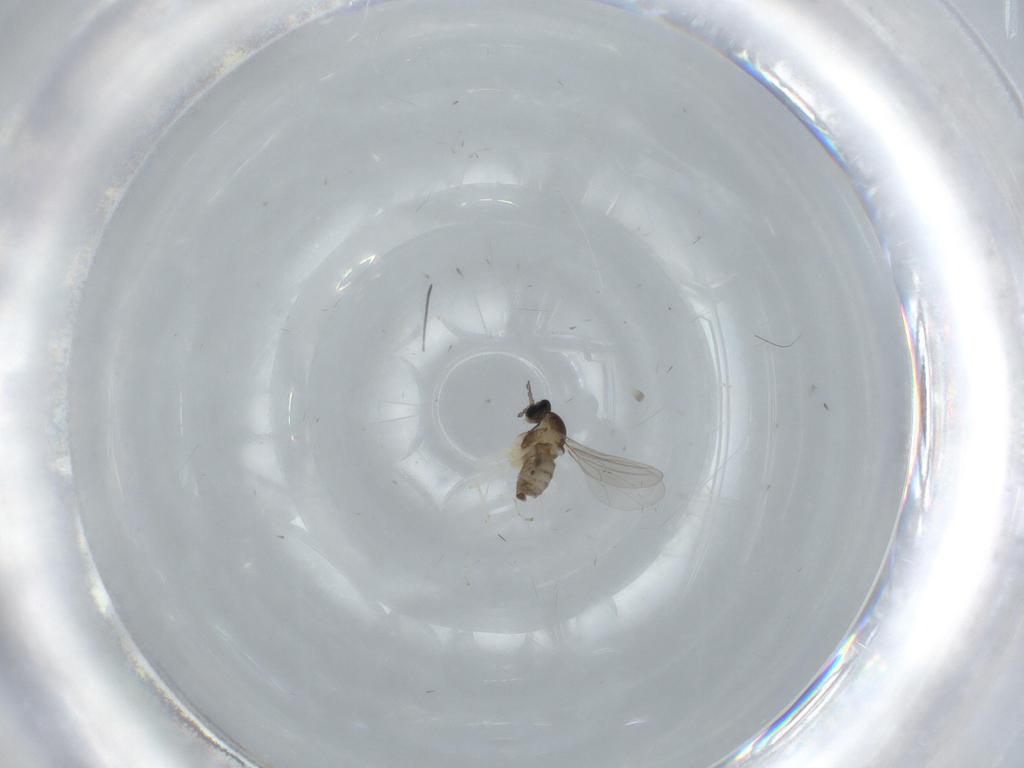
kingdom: Animalia
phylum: Arthropoda
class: Insecta
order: Diptera
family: Cecidomyiidae
